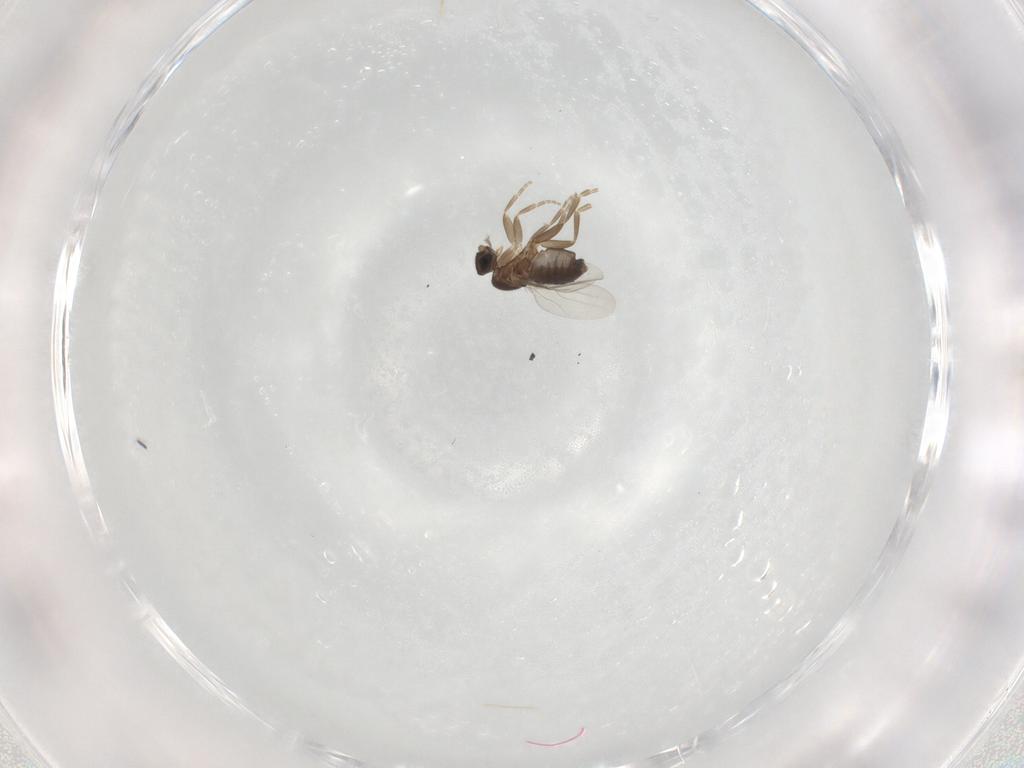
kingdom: Animalia
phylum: Arthropoda
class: Insecta
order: Diptera
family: Phoridae
